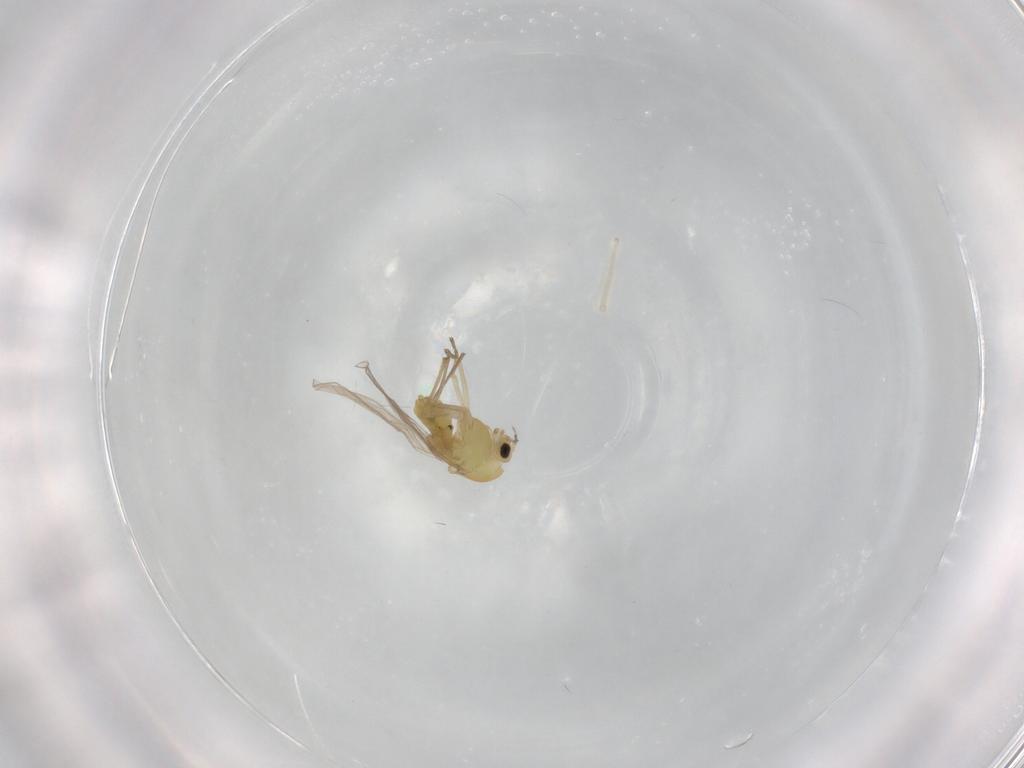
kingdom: Animalia
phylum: Arthropoda
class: Insecta
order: Diptera
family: Chironomidae
